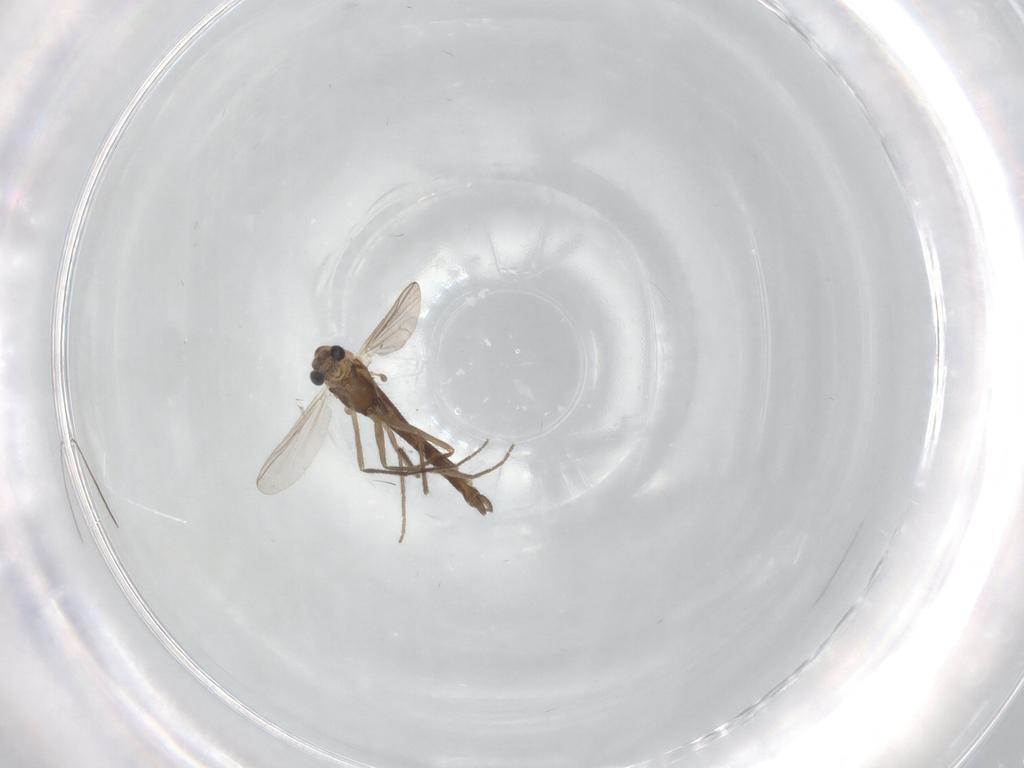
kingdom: Animalia
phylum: Arthropoda
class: Insecta
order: Diptera
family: Chironomidae
